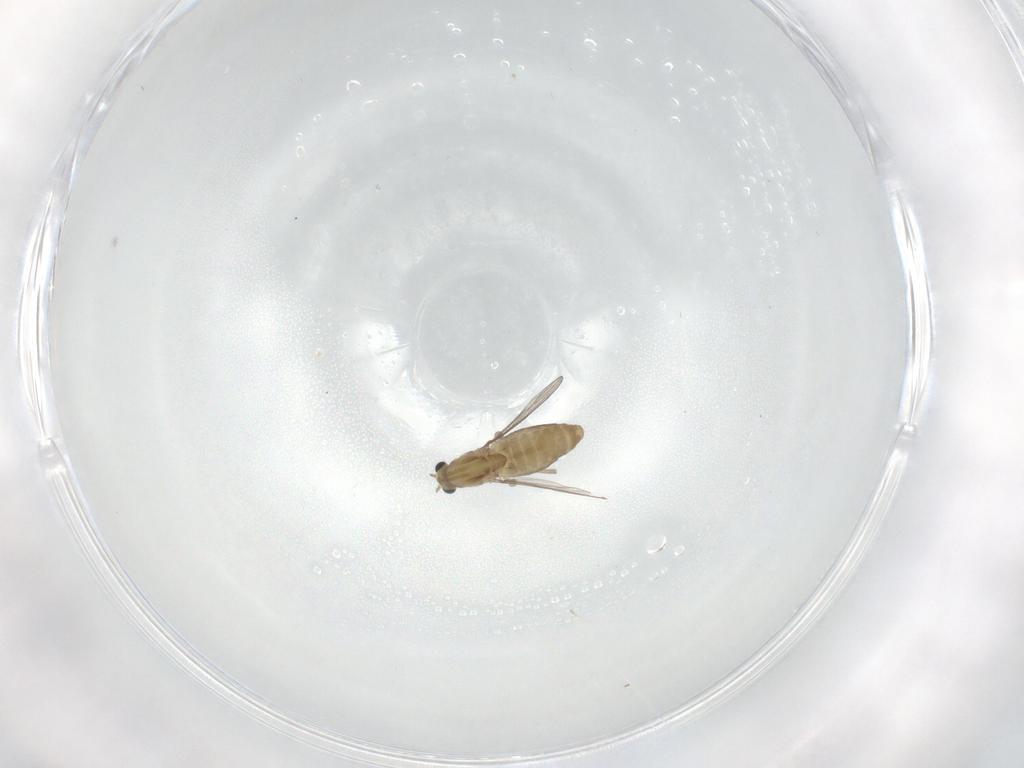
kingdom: Animalia
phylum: Arthropoda
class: Insecta
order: Diptera
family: Chironomidae
